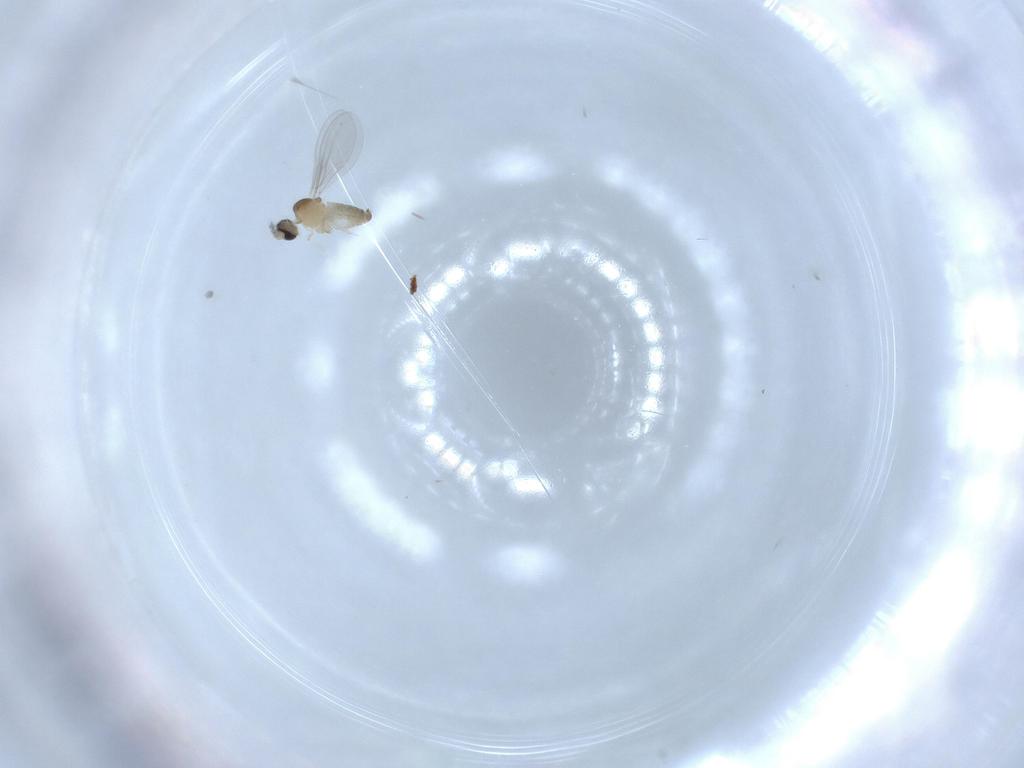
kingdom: Animalia
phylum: Arthropoda
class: Insecta
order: Diptera
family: Cecidomyiidae
